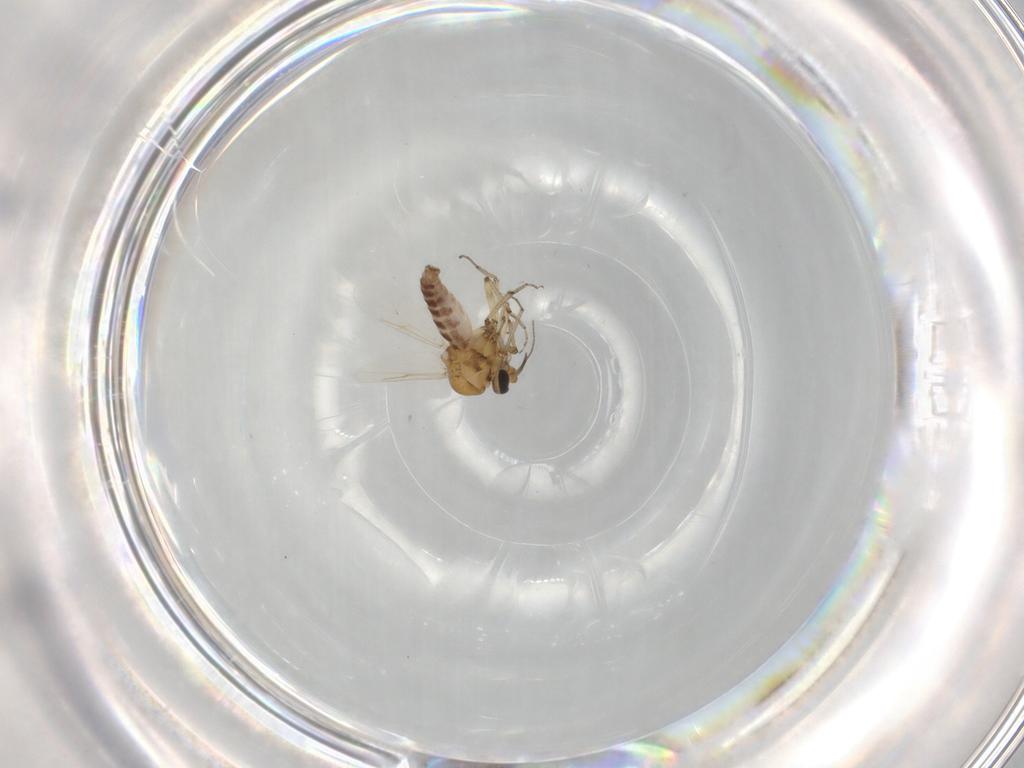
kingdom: Animalia
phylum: Arthropoda
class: Insecta
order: Diptera
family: Ceratopogonidae
